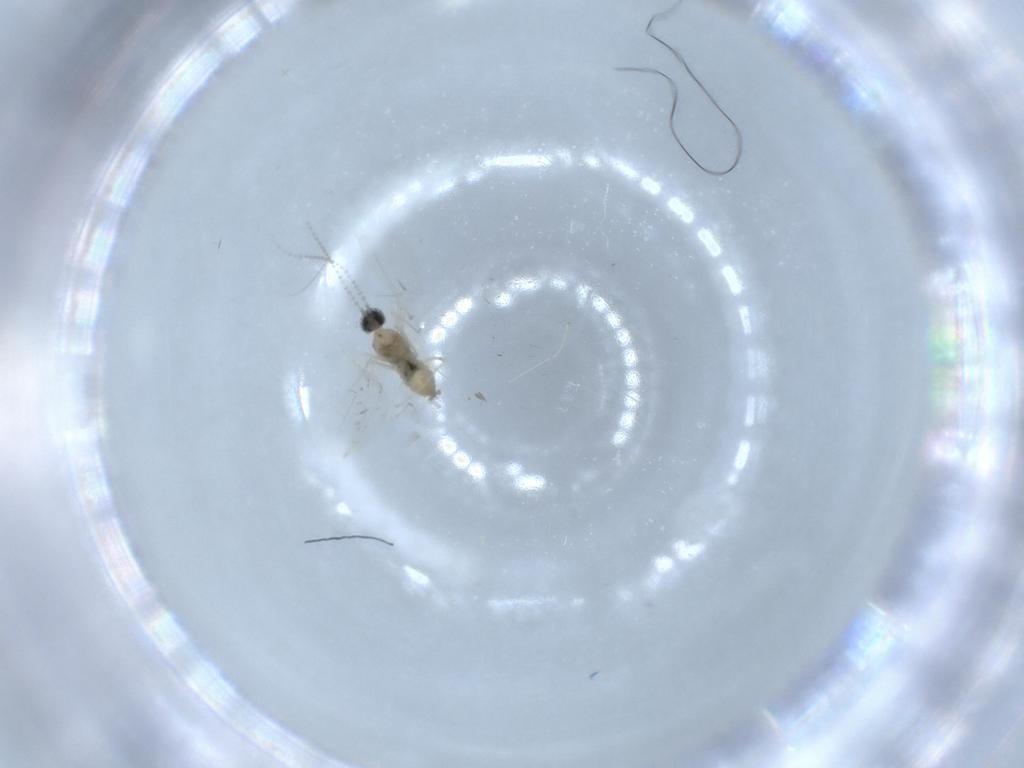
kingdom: Animalia
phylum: Arthropoda
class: Insecta
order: Diptera
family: Cecidomyiidae
